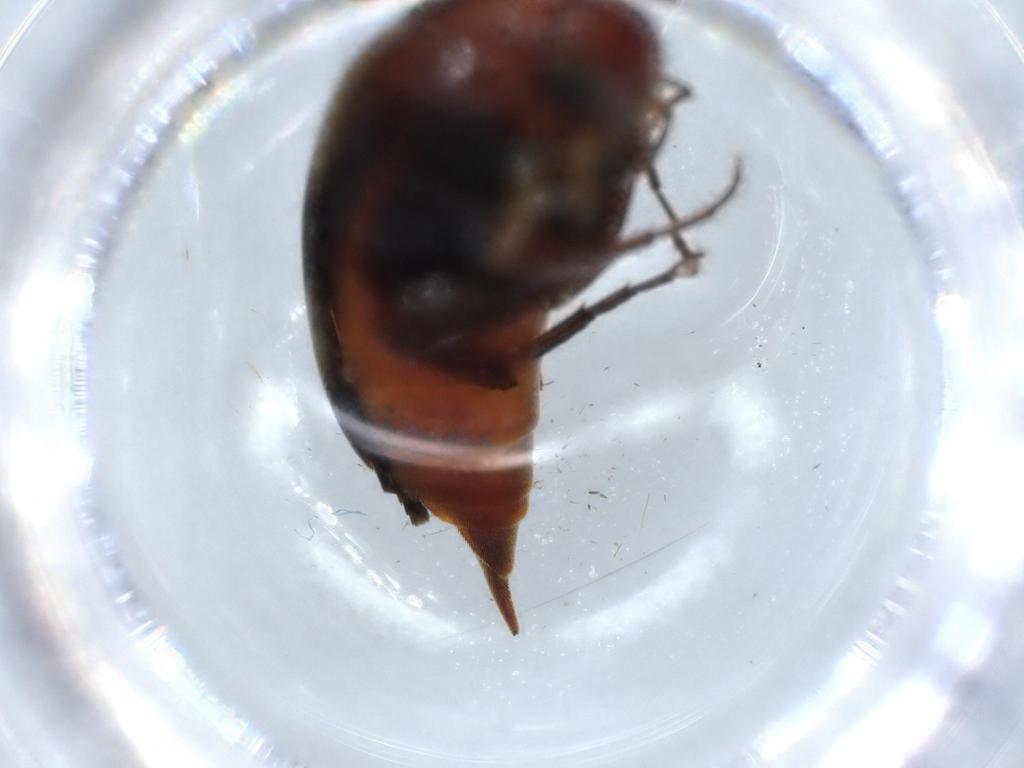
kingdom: Animalia
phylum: Arthropoda
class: Insecta
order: Coleoptera
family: Mordellidae
